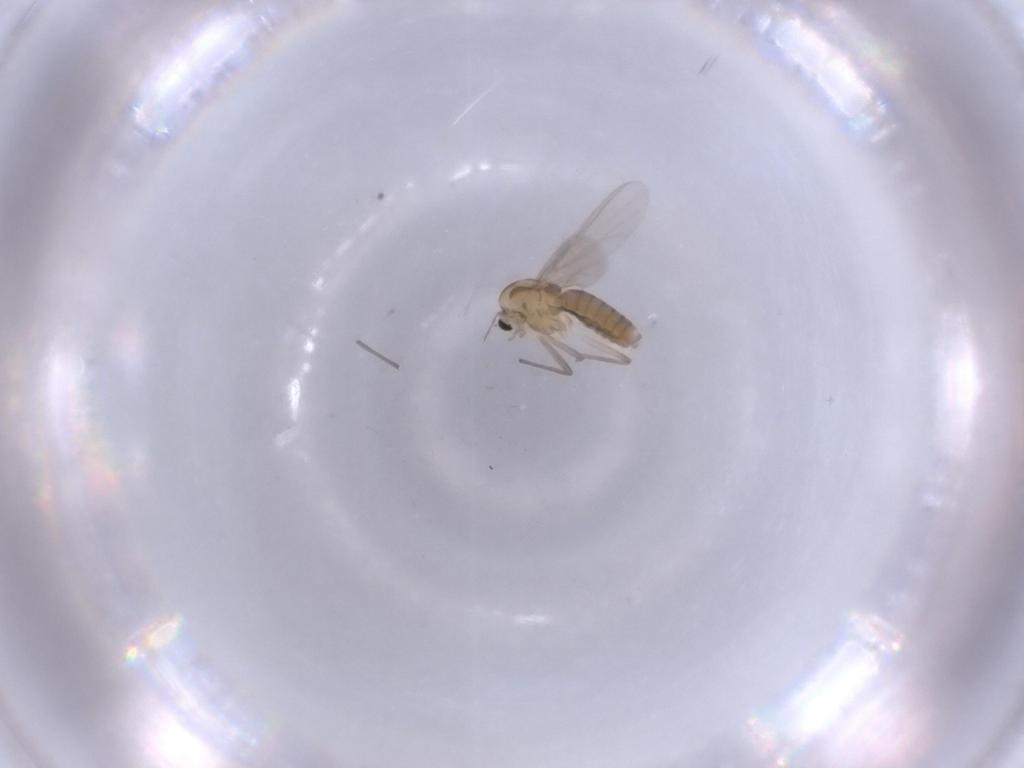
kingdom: Animalia
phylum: Arthropoda
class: Insecta
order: Diptera
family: Chironomidae
